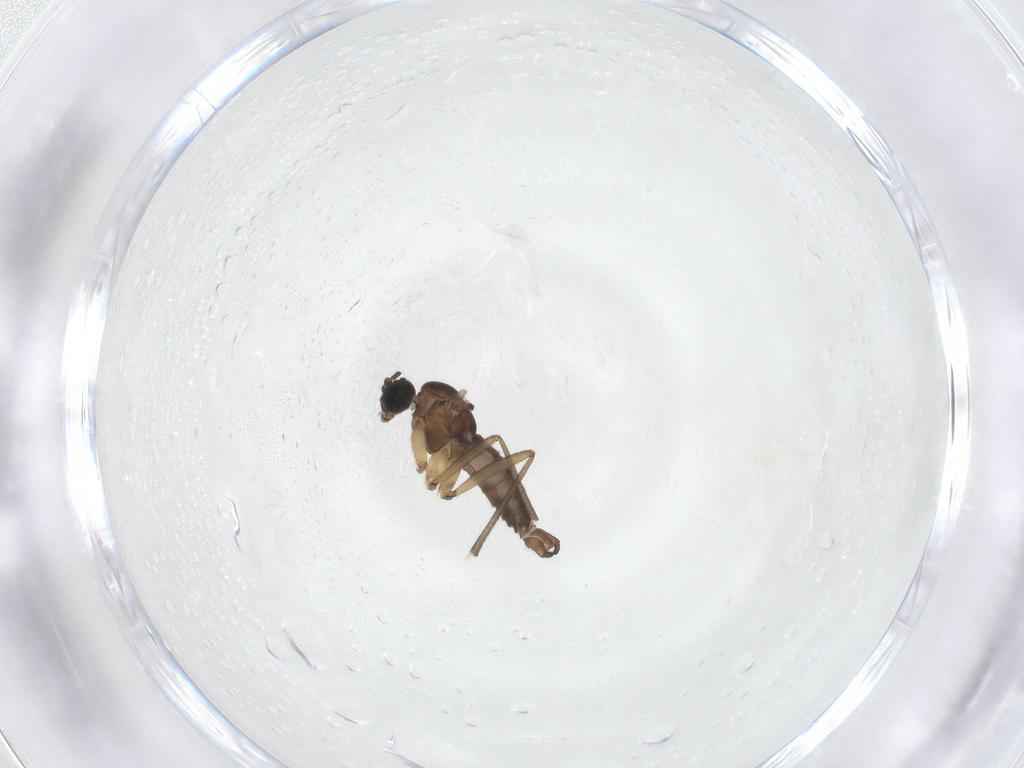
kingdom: Animalia
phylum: Arthropoda
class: Insecta
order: Diptera
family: Sciaridae
